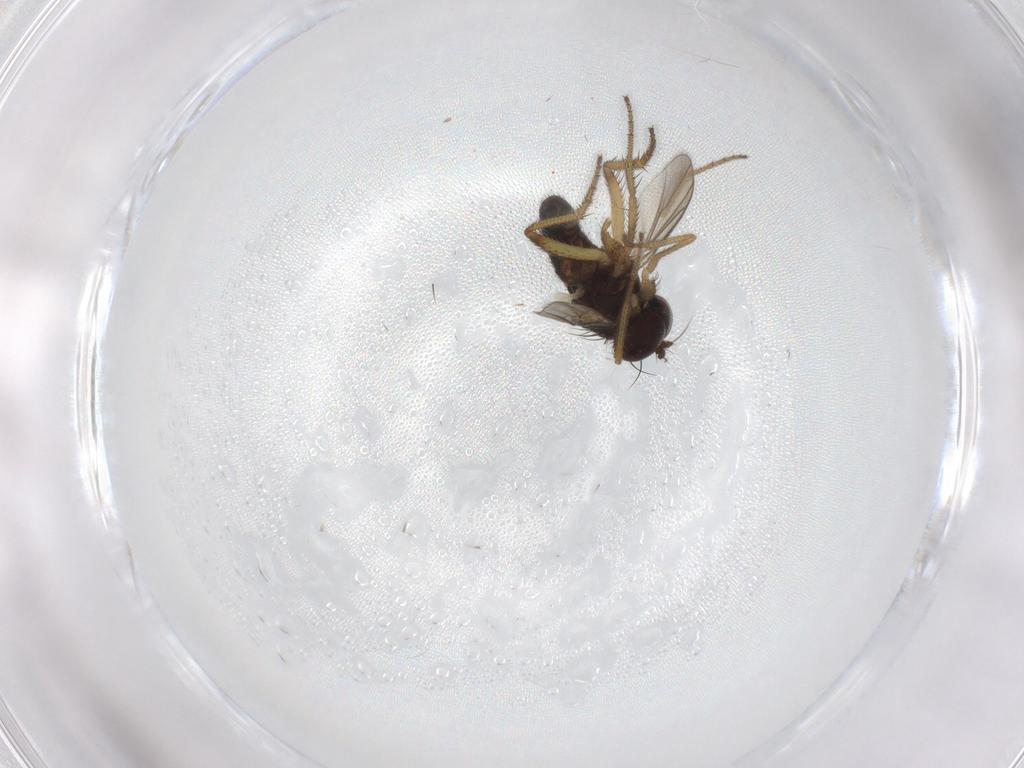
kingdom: Animalia
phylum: Arthropoda
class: Insecta
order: Diptera
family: Dolichopodidae
